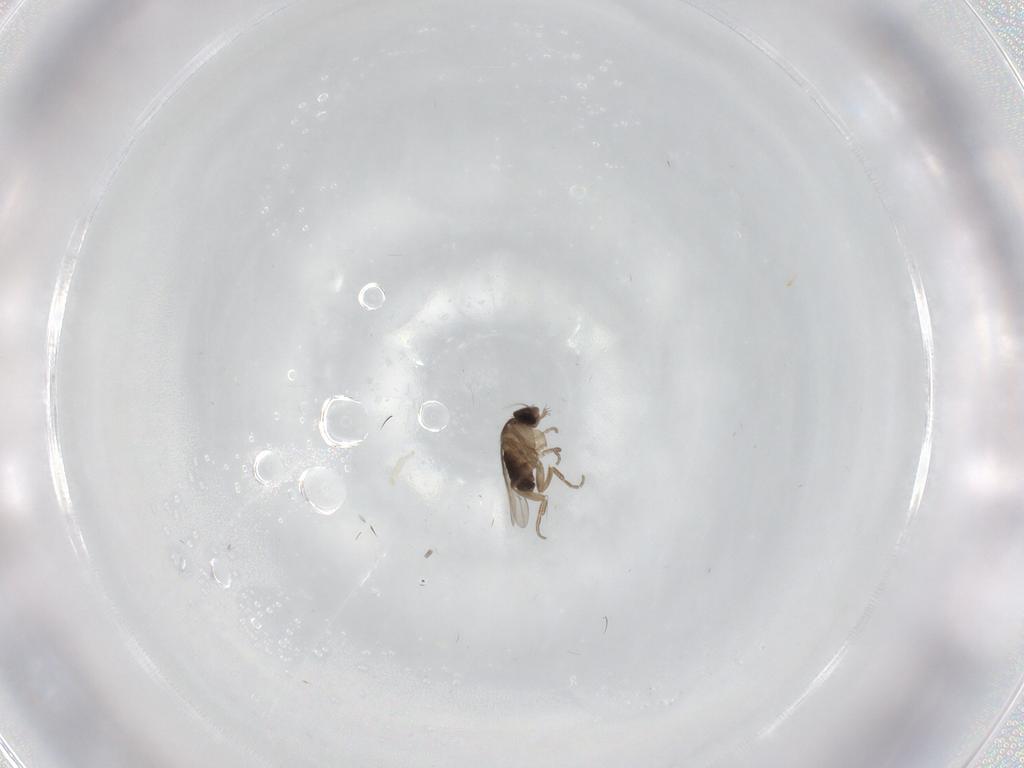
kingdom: Animalia
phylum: Arthropoda
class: Insecta
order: Diptera
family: Phoridae
